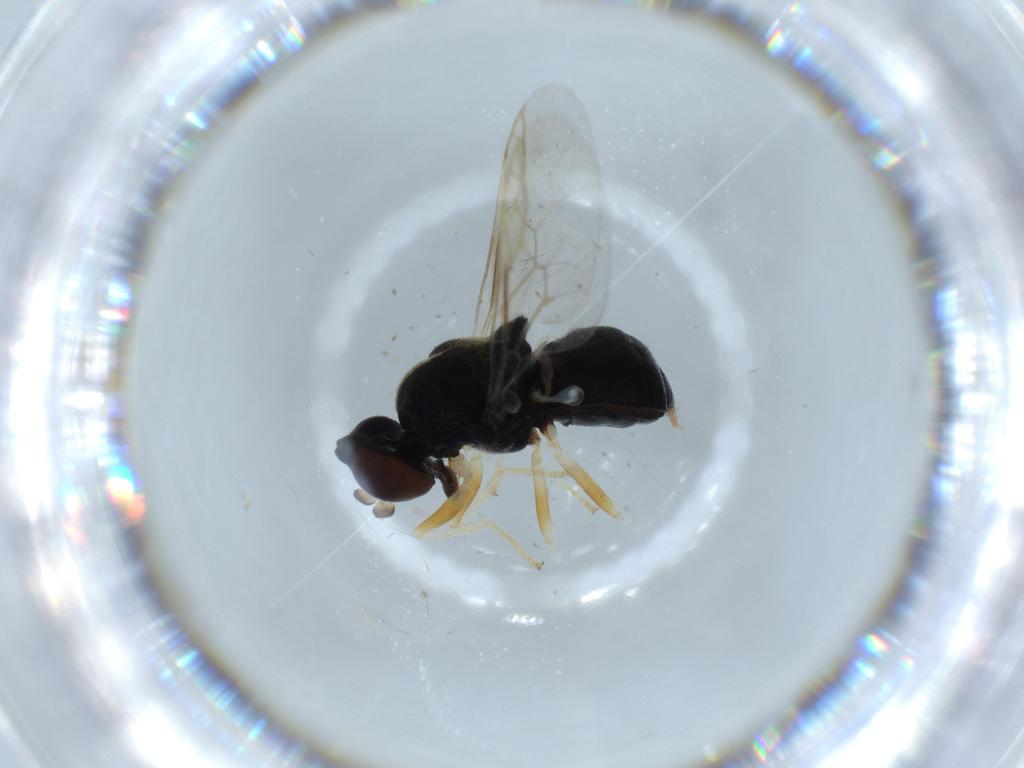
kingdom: Animalia
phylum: Arthropoda
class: Insecta
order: Diptera
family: Stratiomyidae
